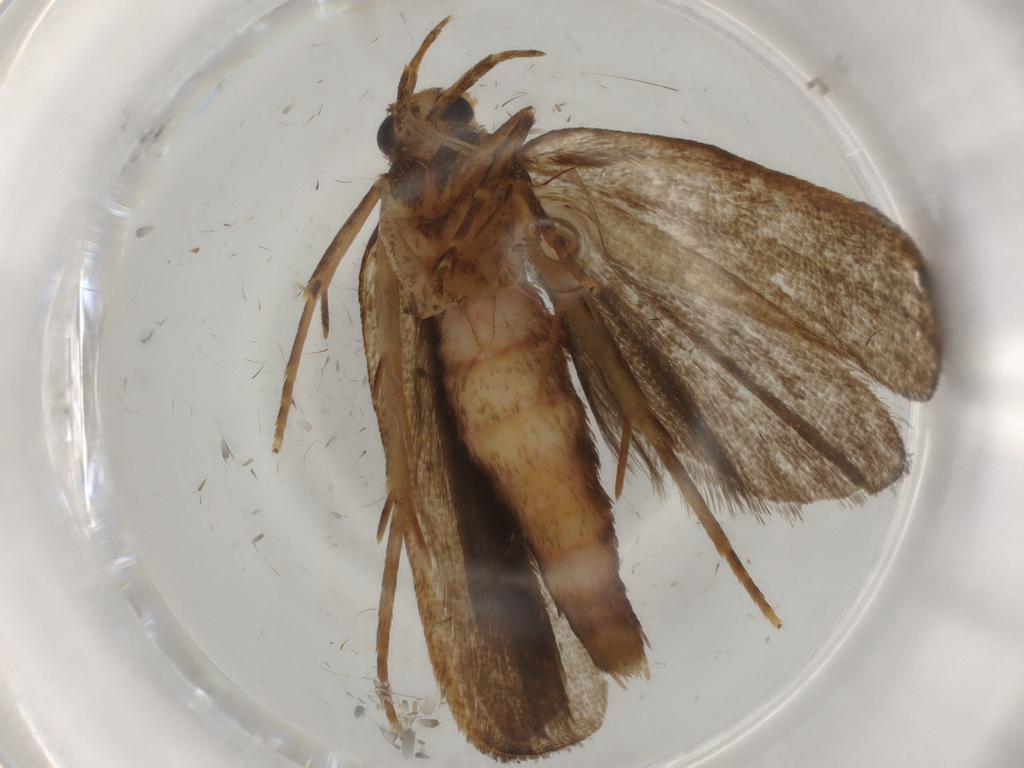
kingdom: Animalia
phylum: Arthropoda
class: Insecta
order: Lepidoptera
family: Autostichidae
